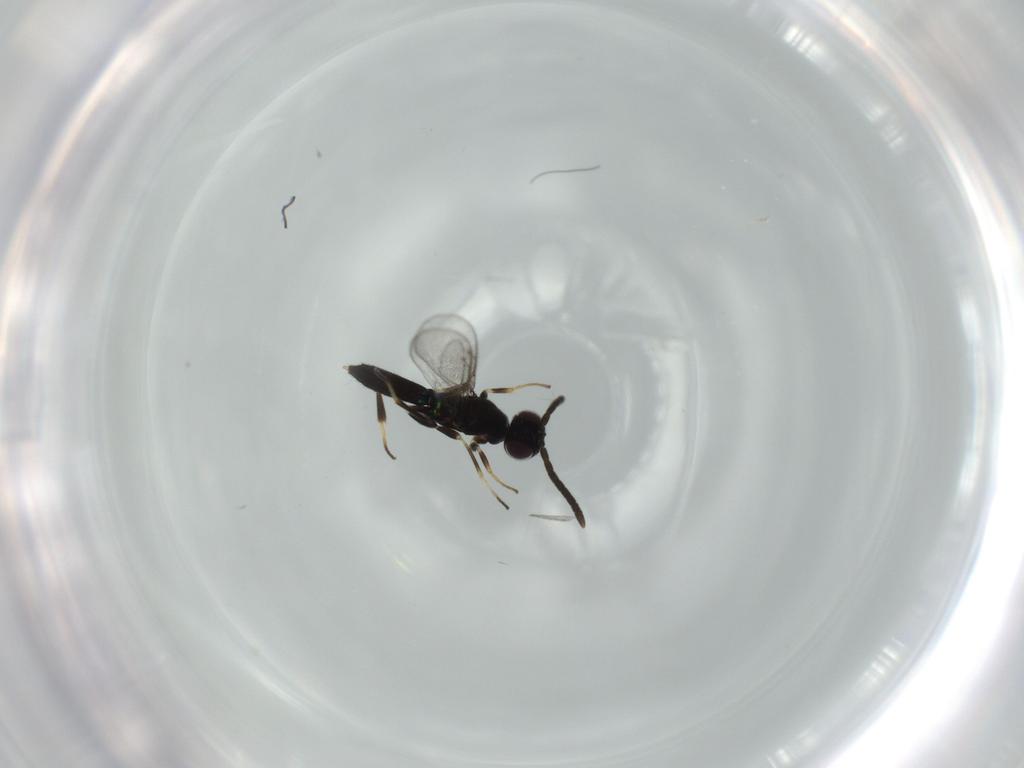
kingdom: Animalia
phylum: Arthropoda
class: Insecta
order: Hymenoptera
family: Eupelmidae
